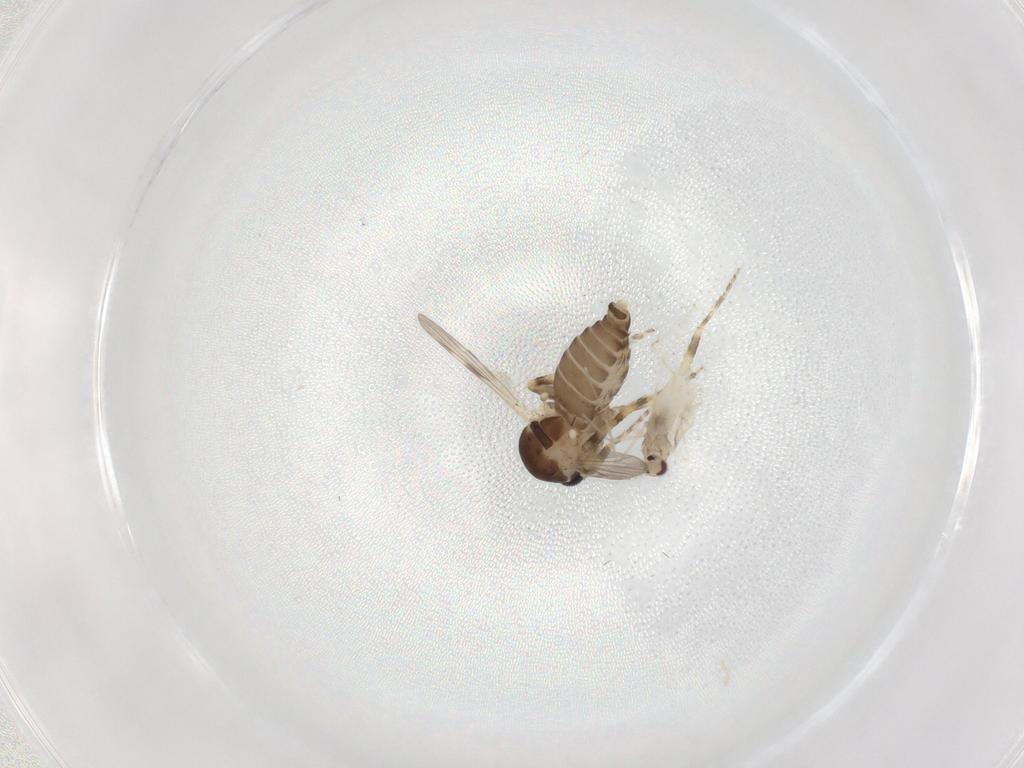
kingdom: Animalia
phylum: Arthropoda
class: Insecta
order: Diptera
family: Ceratopogonidae
